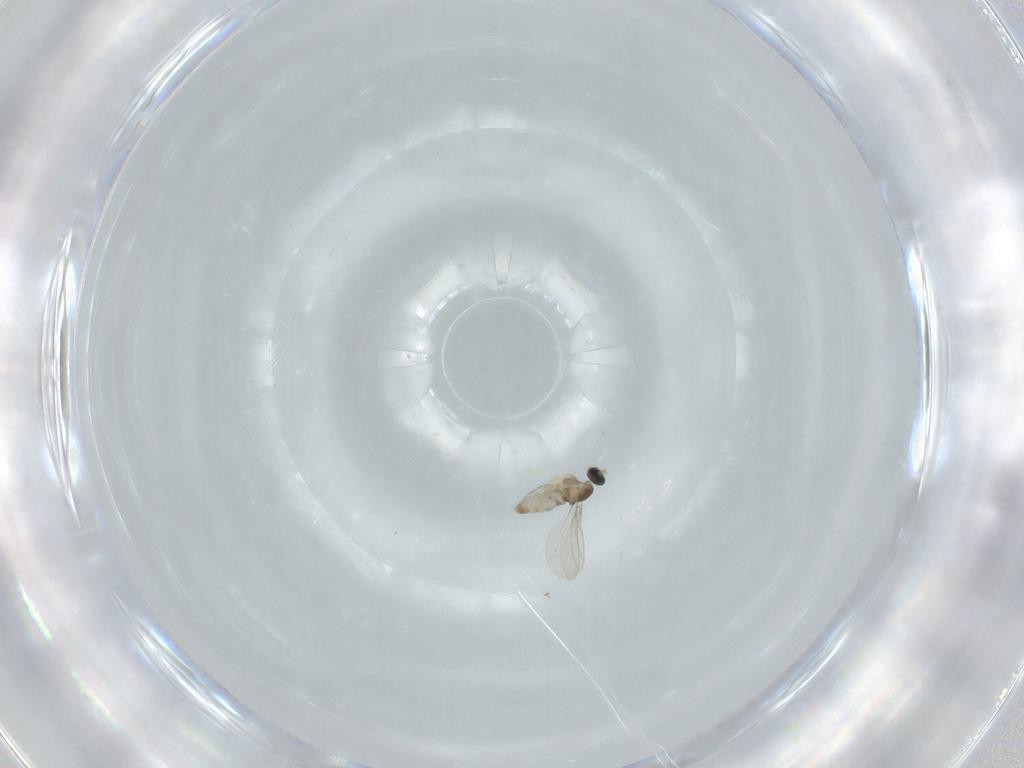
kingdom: Animalia
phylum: Arthropoda
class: Insecta
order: Diptera
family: Cecidomyiidae
